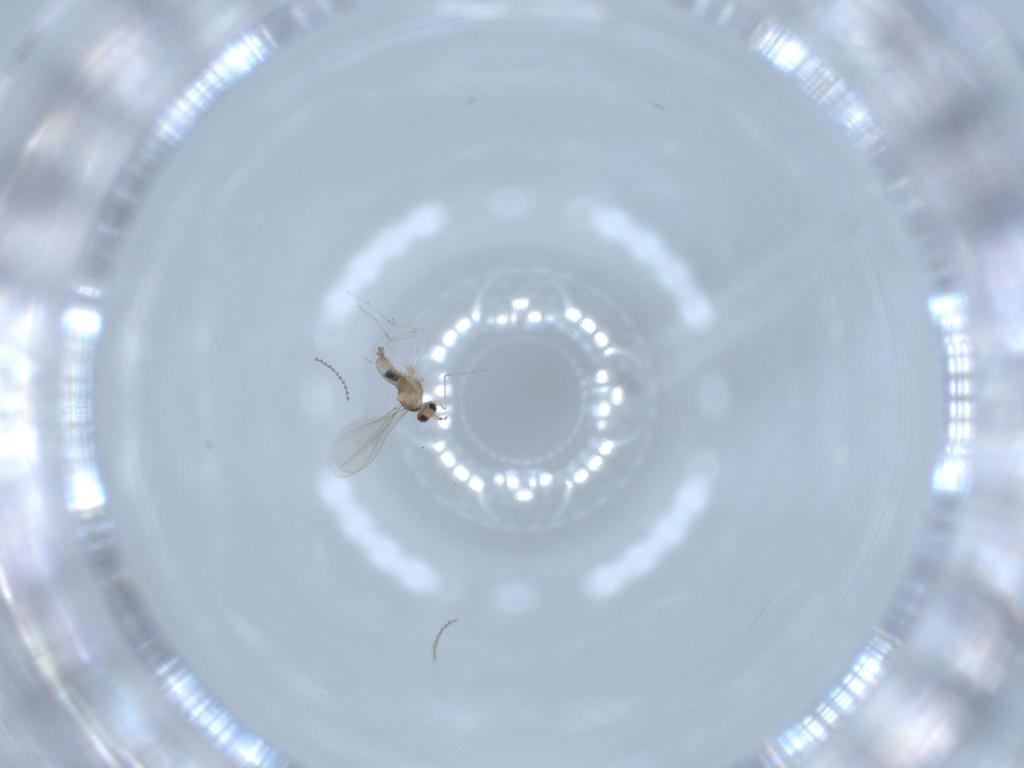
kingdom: Animalia
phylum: Arthropoda
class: Insecta
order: Diptera
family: Cecidomyiidae
